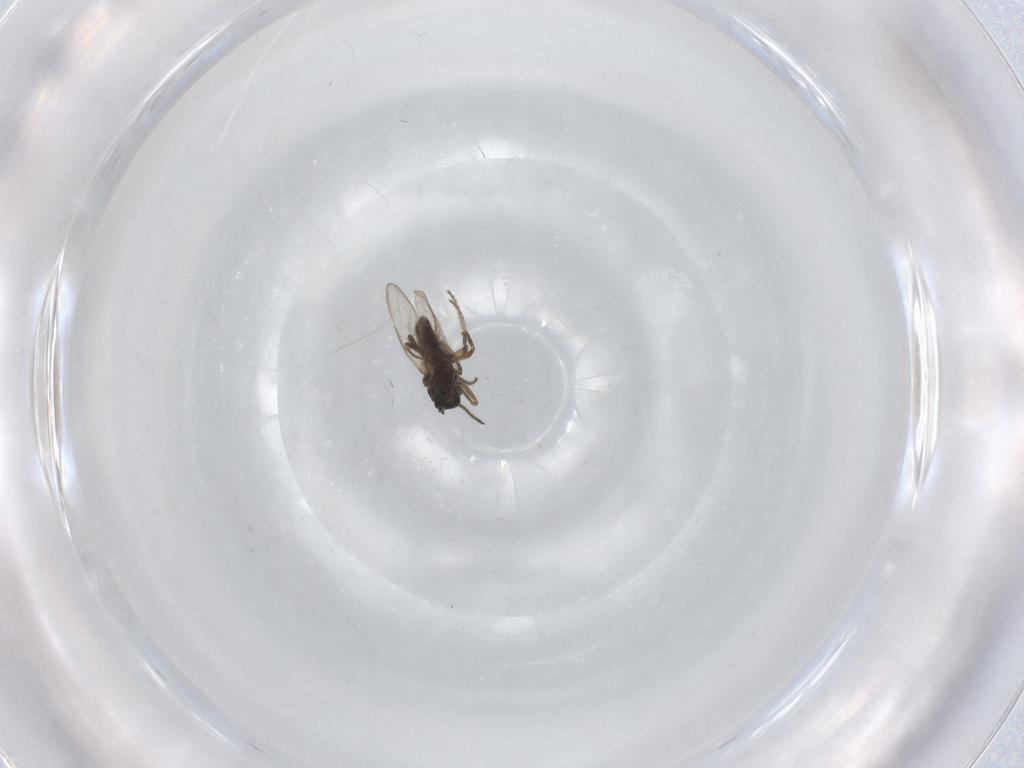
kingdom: Animalia
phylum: Arthropoda
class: Insecta
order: Diptera
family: Ceratopogonidae
